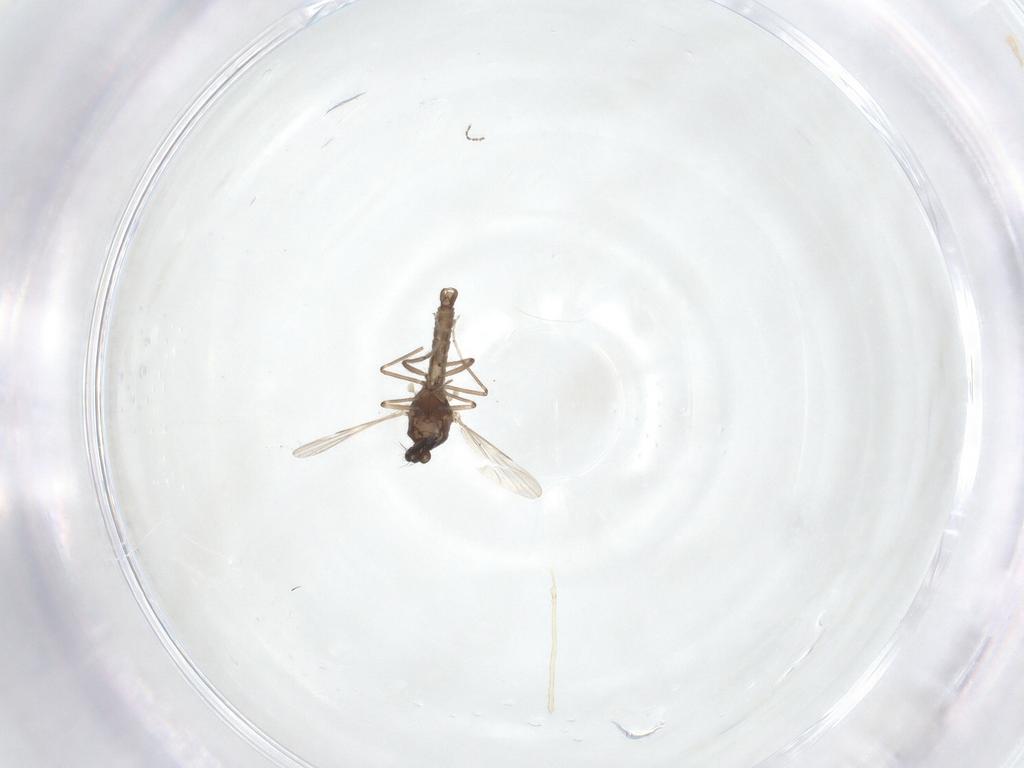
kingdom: Animalia
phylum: Arthropoda
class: Insecta
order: Diptera
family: Ceratopogonidae
